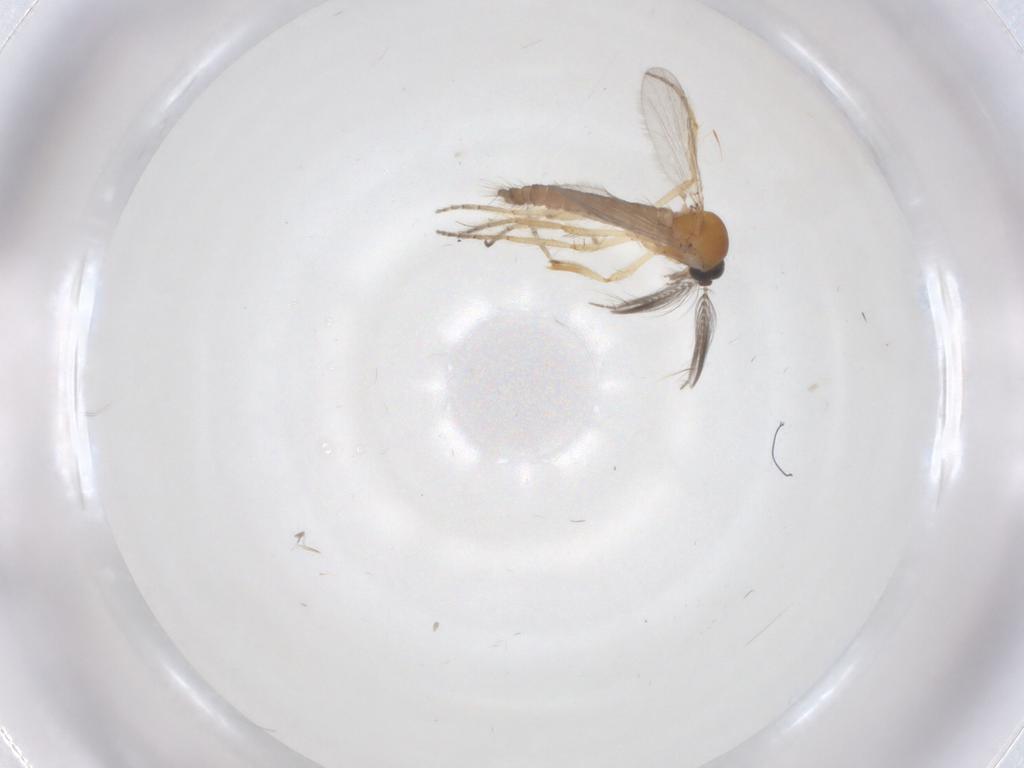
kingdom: Animalia
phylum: Arthropoda
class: Insecta
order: Diptera
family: Ceratopogonidae
